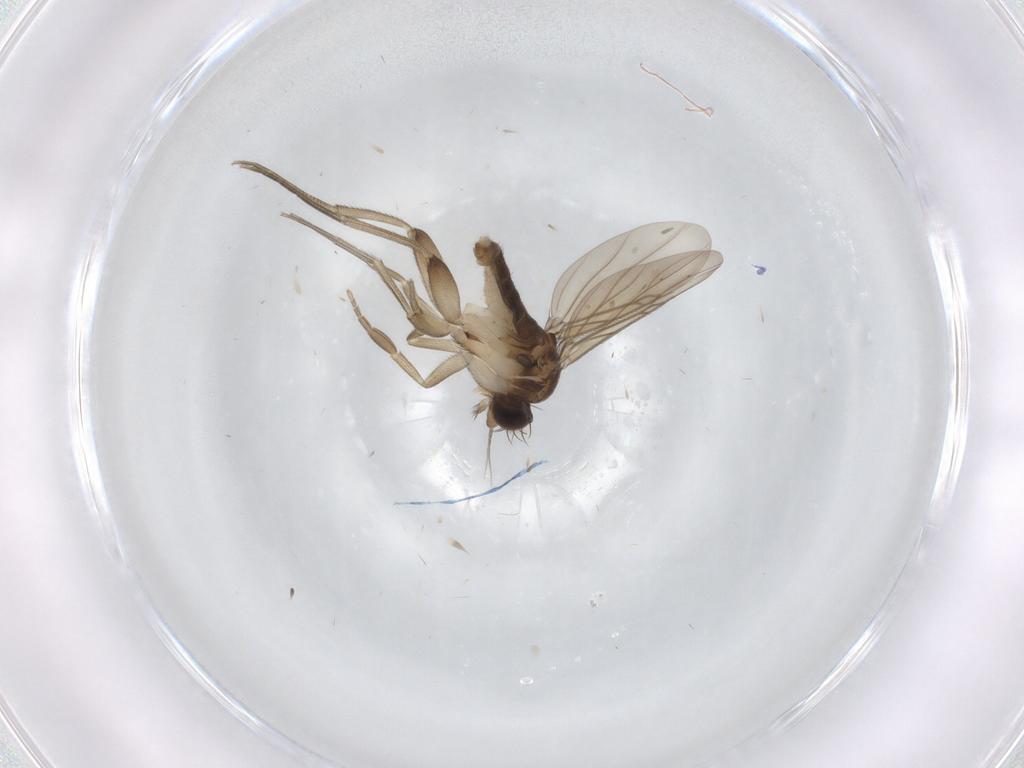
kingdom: Animalia
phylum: Arthropoda
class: Insecta
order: Diptera
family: Phoridae
